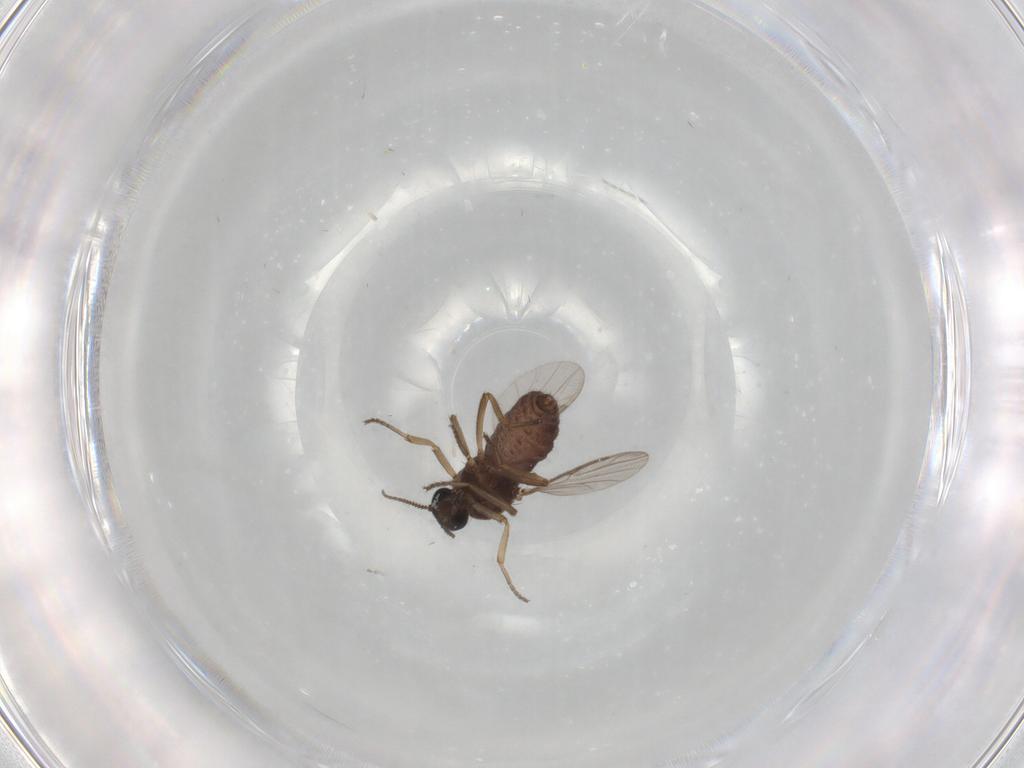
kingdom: Animalia
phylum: Arthropoda
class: Insecta
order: Diptera
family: Ceratopogonidae
